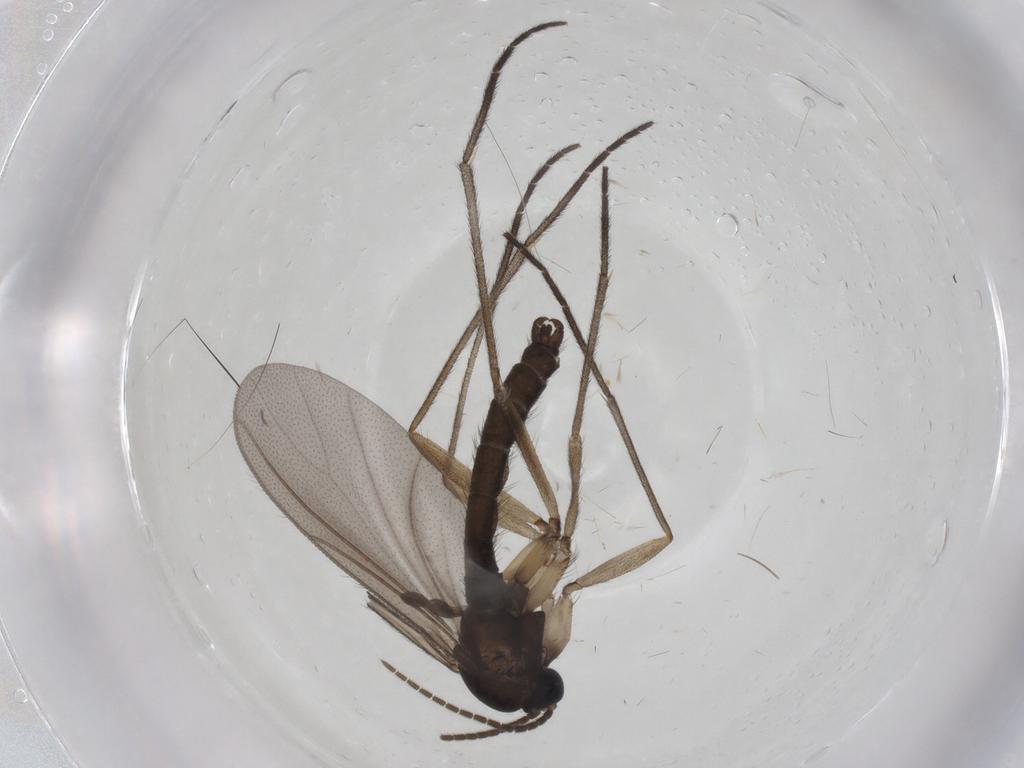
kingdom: Animalia
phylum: Arthropoda
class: Insecta
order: Diptera
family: Sciaridae
